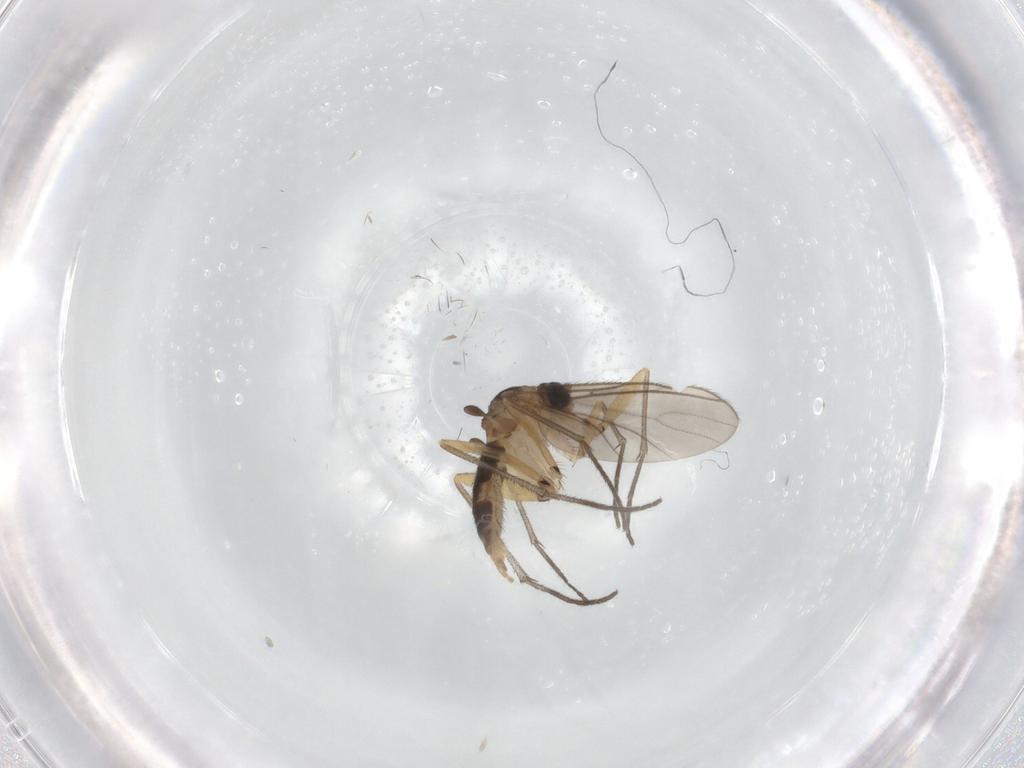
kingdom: Animalia
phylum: Arthropoda
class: Insecta
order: Diptera
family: Sciaridae
